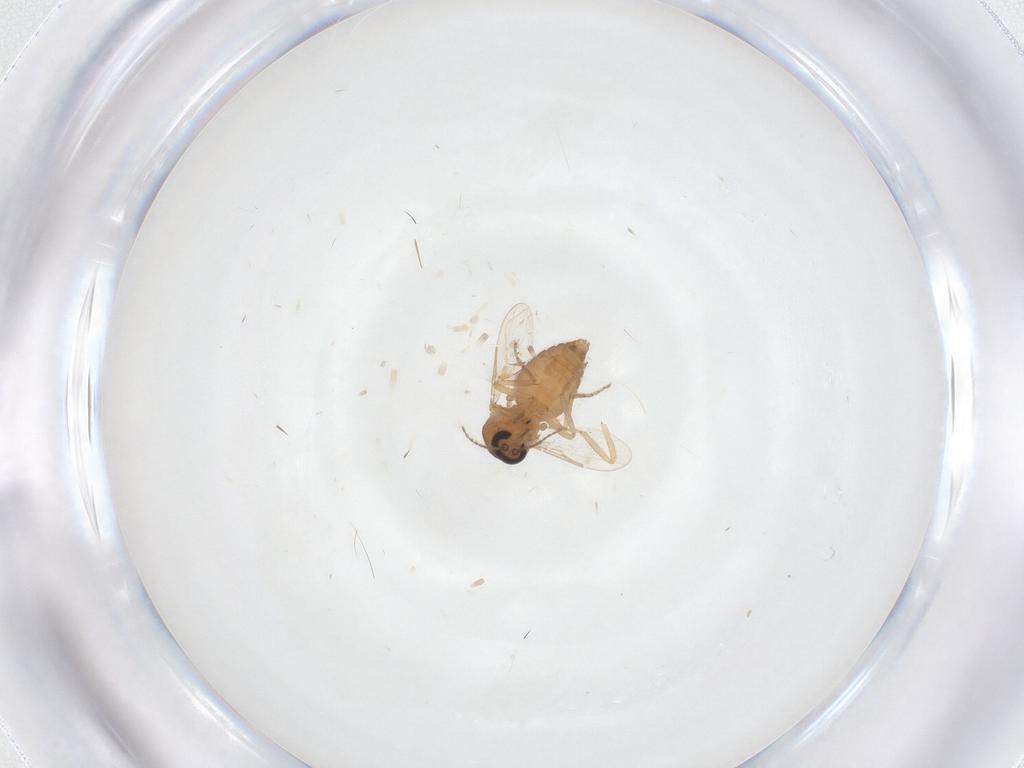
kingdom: Animalia
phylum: Arthropoda
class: Insecta
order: Diptera
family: Ceratopogonidae
